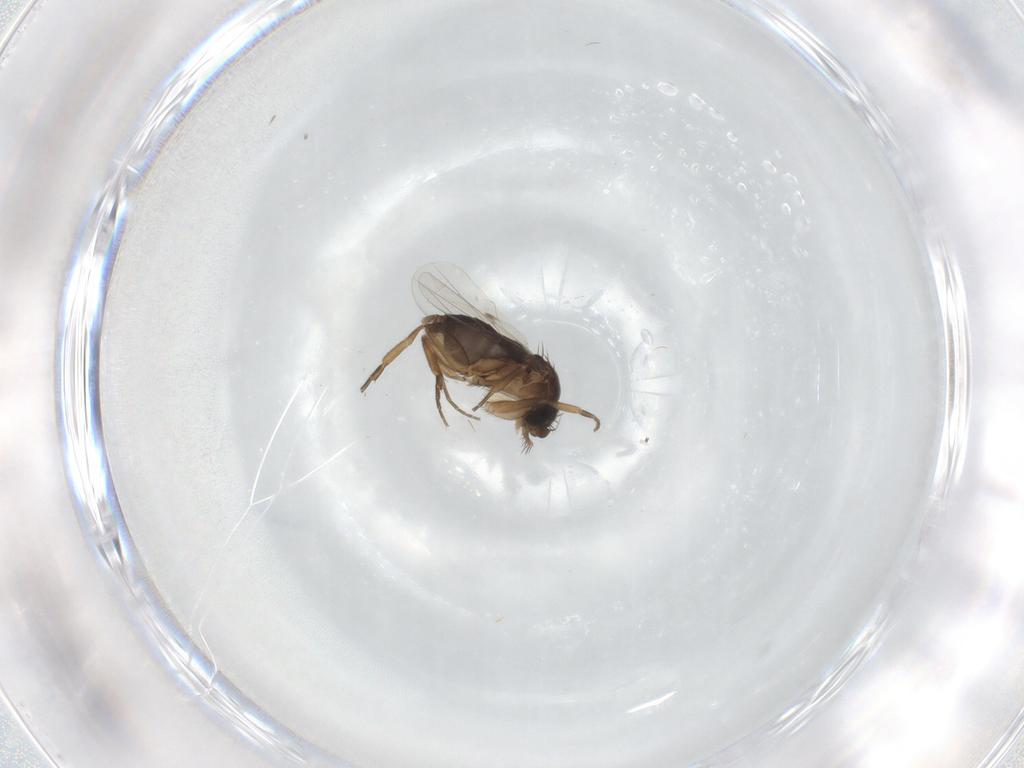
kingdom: Animalia
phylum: Arthropoda
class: Insecta
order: Diptera
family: Phoridae
